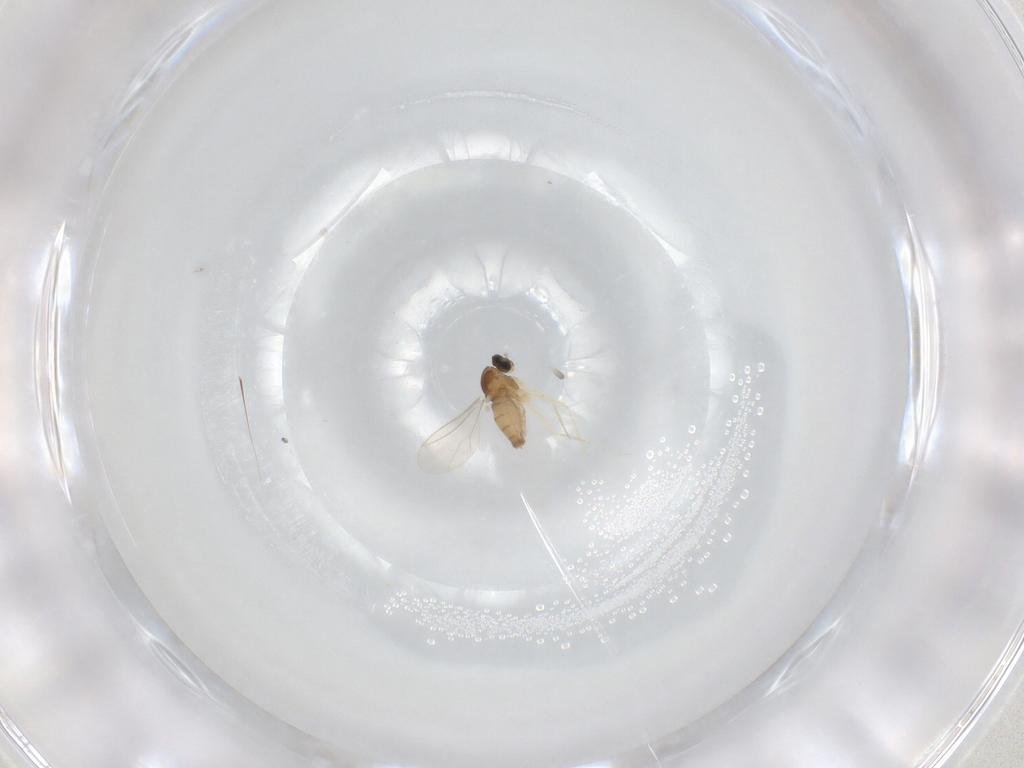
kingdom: Animalia
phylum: Arthropoda
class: Insecta
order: Diptera
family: Cecidomyiidae
